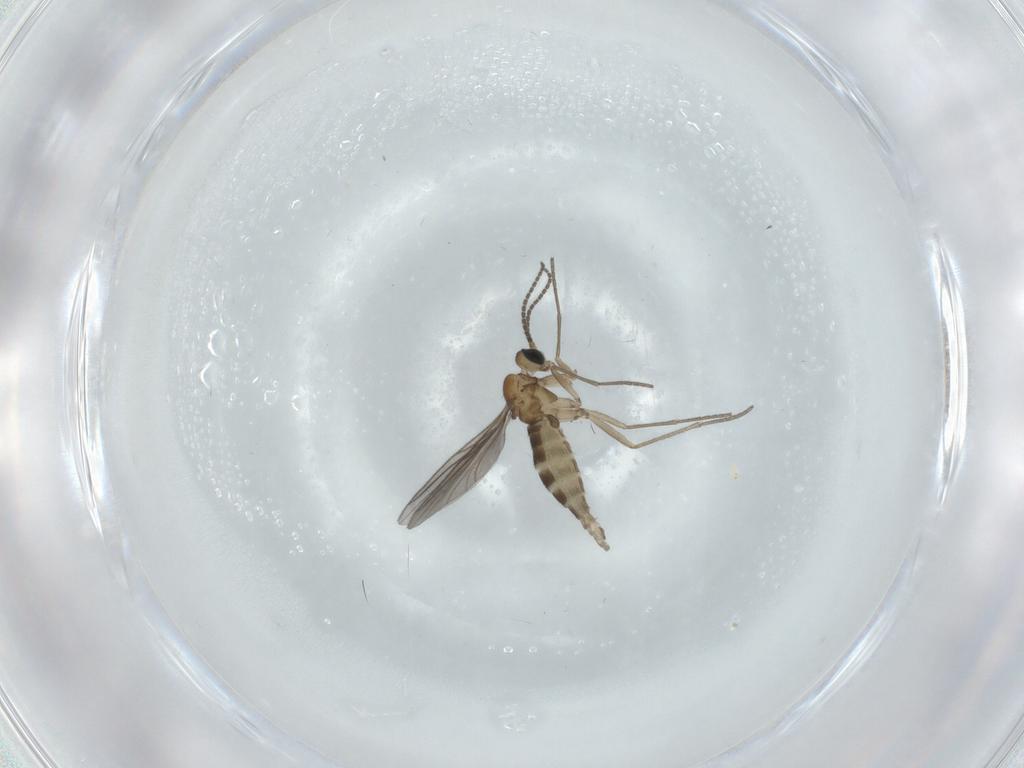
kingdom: Animalia
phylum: Arthropoda
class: Insecta
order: Diptera
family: Sciaridae
